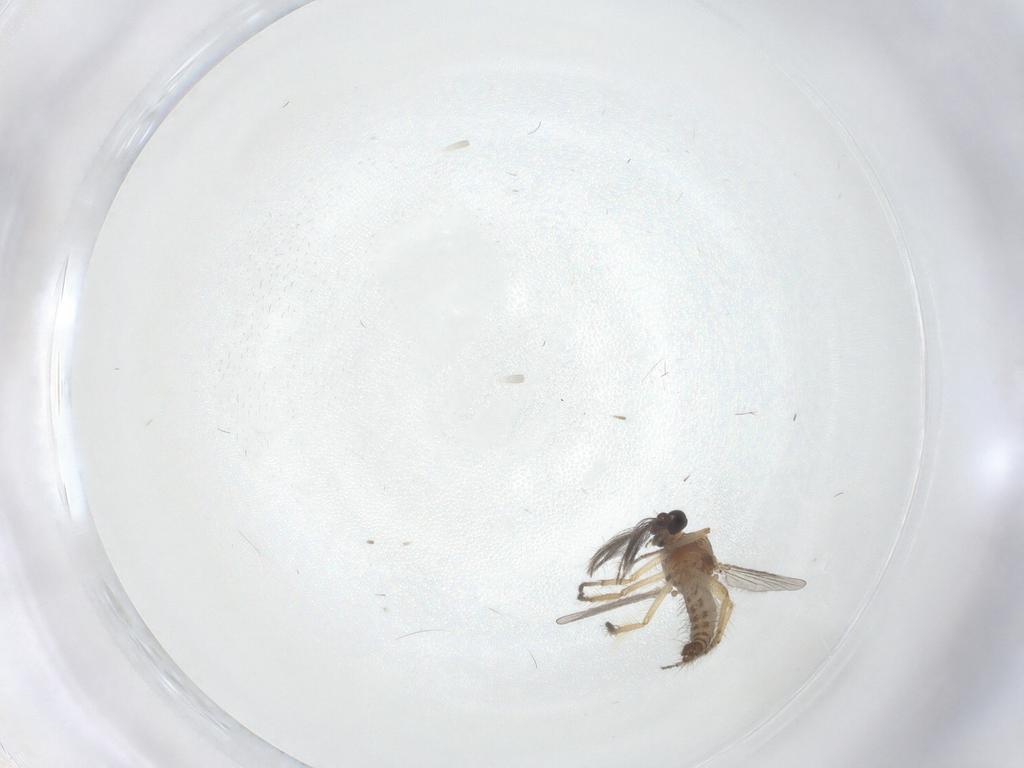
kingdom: Animalia
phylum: Arthropoda
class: Insecta
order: Diptera
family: Ceratopogonidae
